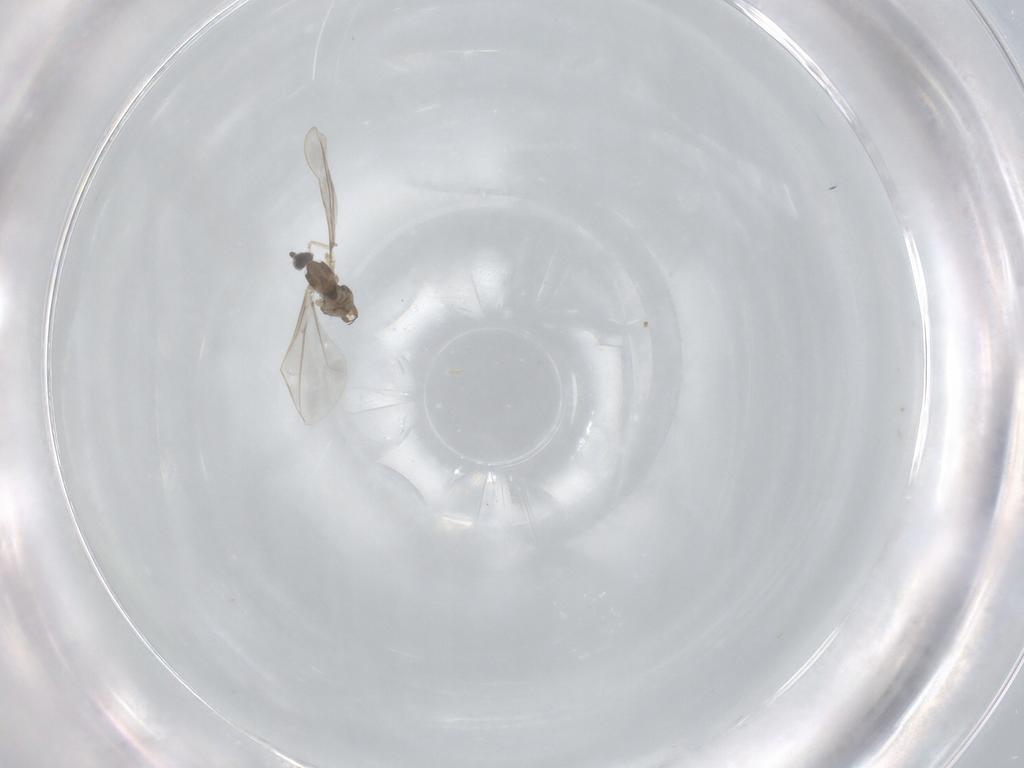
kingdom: Animalia
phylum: Arthropoda
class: Insecta
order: Diptera
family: Cecidomyiidae
